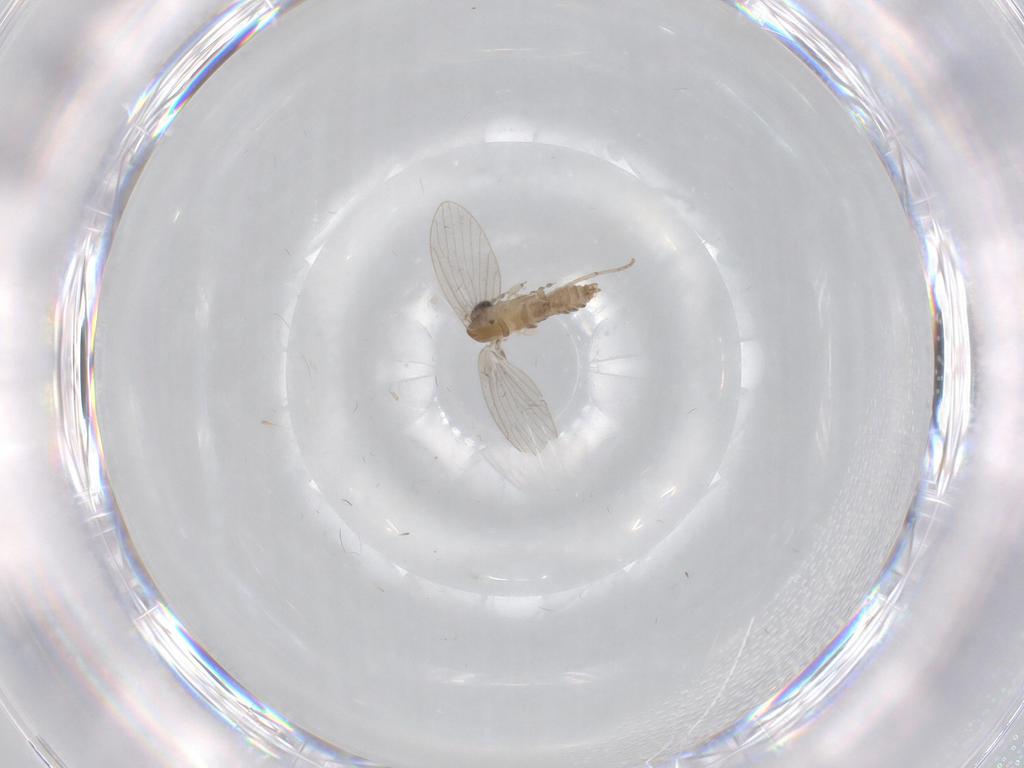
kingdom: Animalia
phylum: Arthropoda
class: Insecta
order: Diptera
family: Psychodidae
